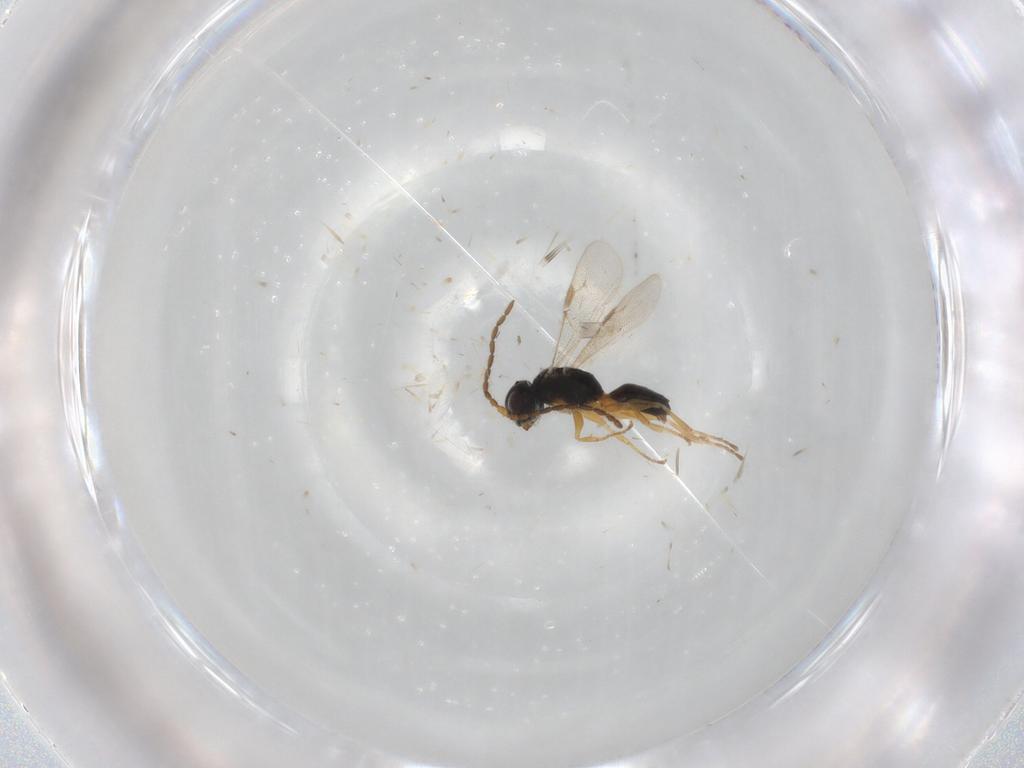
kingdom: Animalia
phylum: Arthropoda
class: Insecta
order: Hymenoptera
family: Dryinidae
